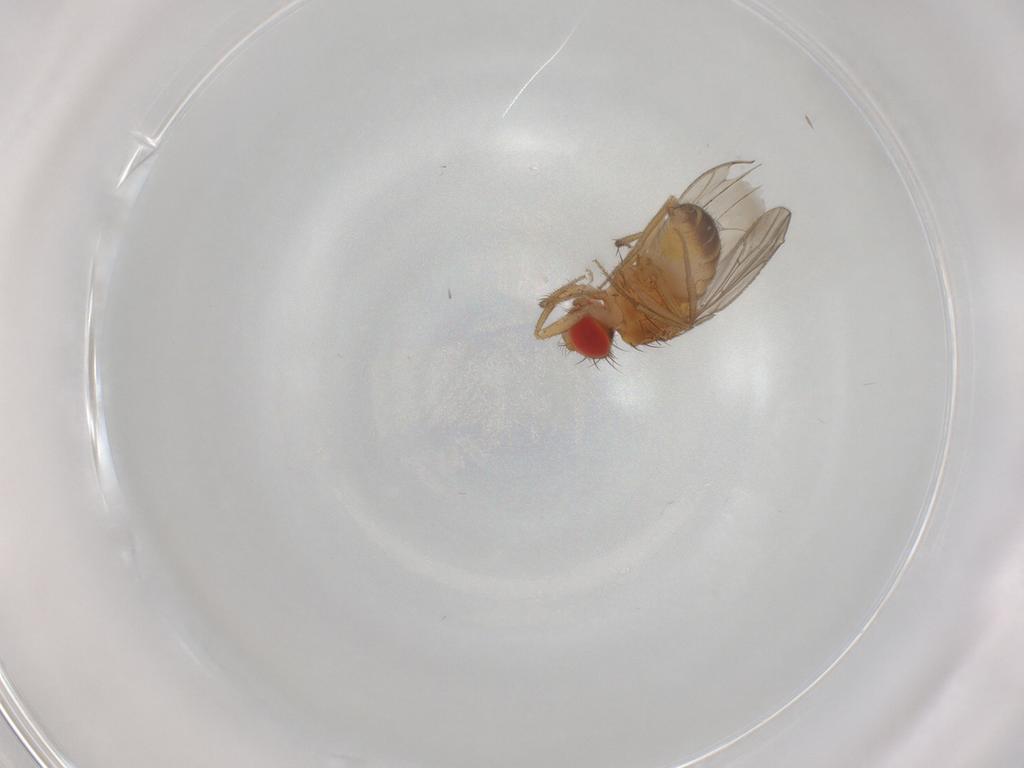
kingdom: Animalia
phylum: Arthropoda
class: Insecta
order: Diptera
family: Drosophilidae
